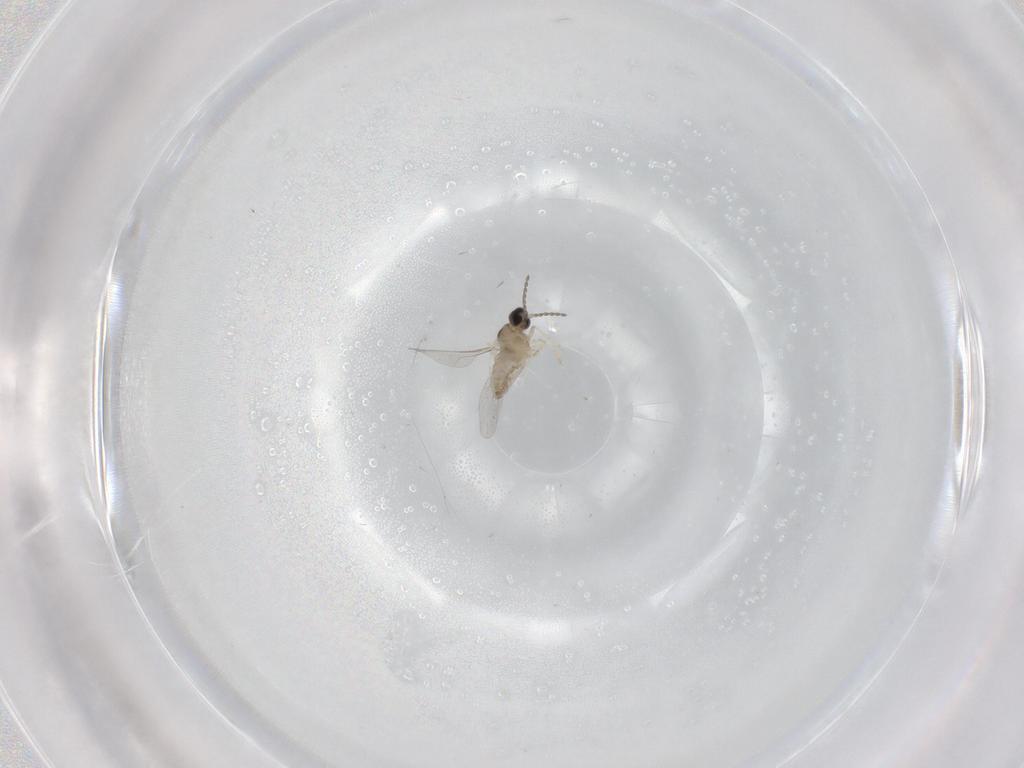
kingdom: Animalia
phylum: Arthropoda
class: Insecta
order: Diptera
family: Cecidomyiidae
